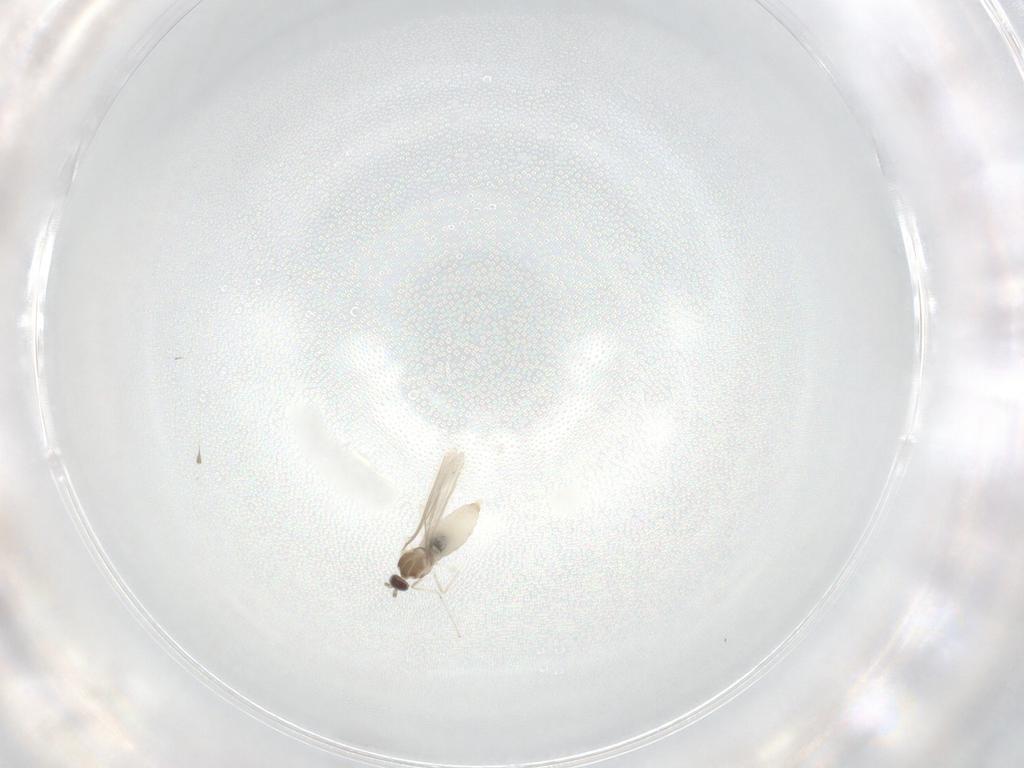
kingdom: Animalia
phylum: Arthropoda
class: Insecta
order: Diptera
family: Cecidomyiidae
